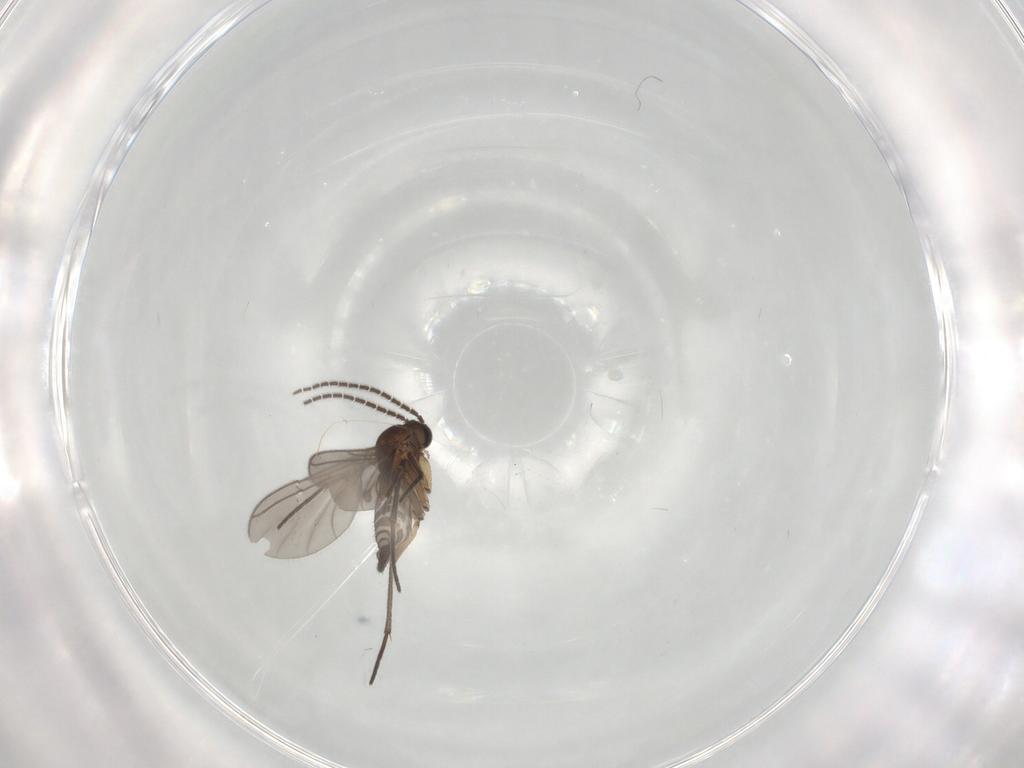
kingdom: Animalia
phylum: Arthropoda
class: Insecta
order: Diptera
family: Sciaridae
